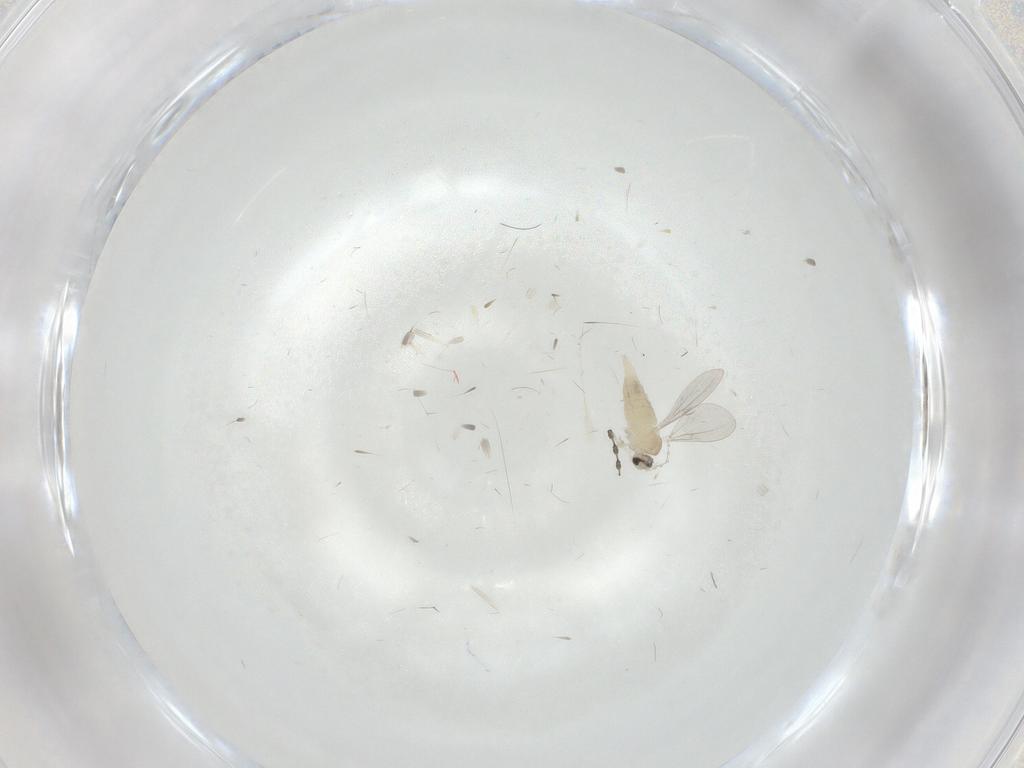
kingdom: Animalia
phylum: Arthropoda
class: Insecta
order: Diptera
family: Cecidomyiidae
